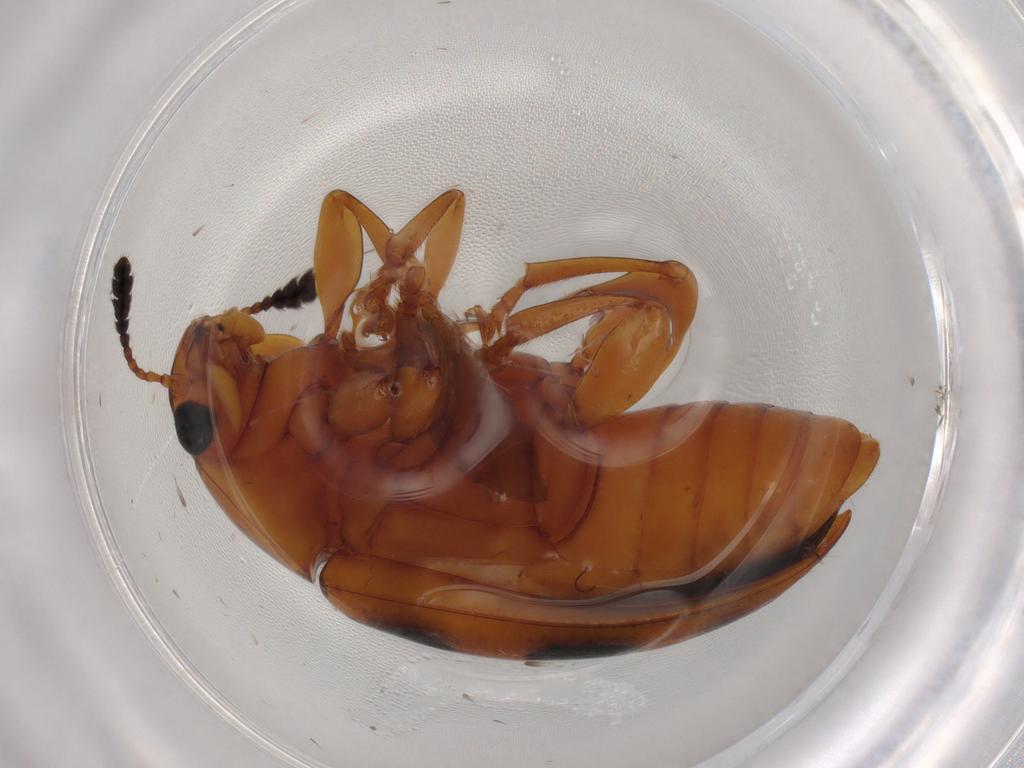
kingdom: Animalia
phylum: Arthropoda
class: Insecta
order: Coleoptera
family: Erotylidae
